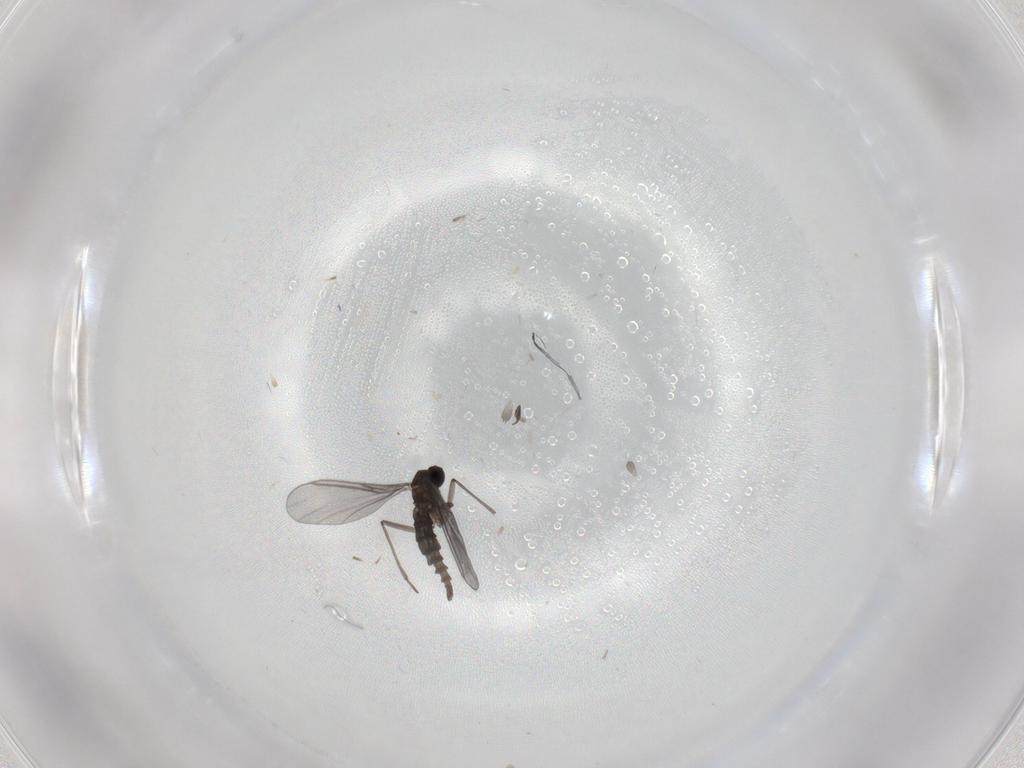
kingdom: Animalia
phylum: Arthropoda
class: Insecta
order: Diptera
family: Sciaridae
